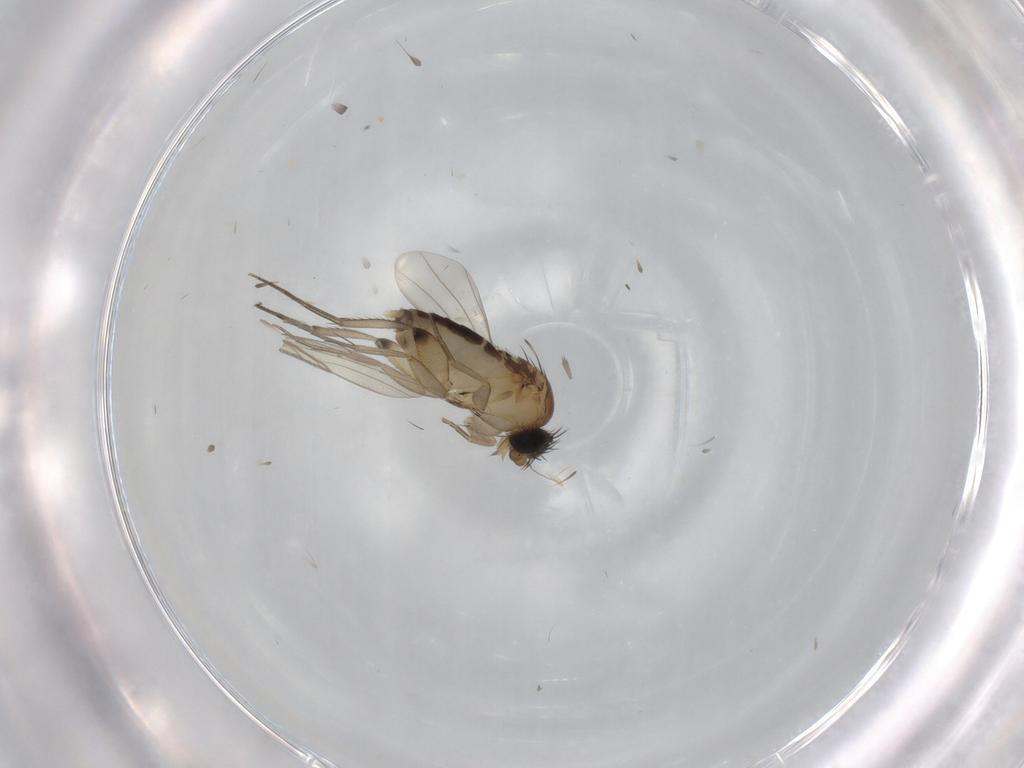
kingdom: Animalia
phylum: Arthropoda
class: Insecta
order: Diptera
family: Phoridae
